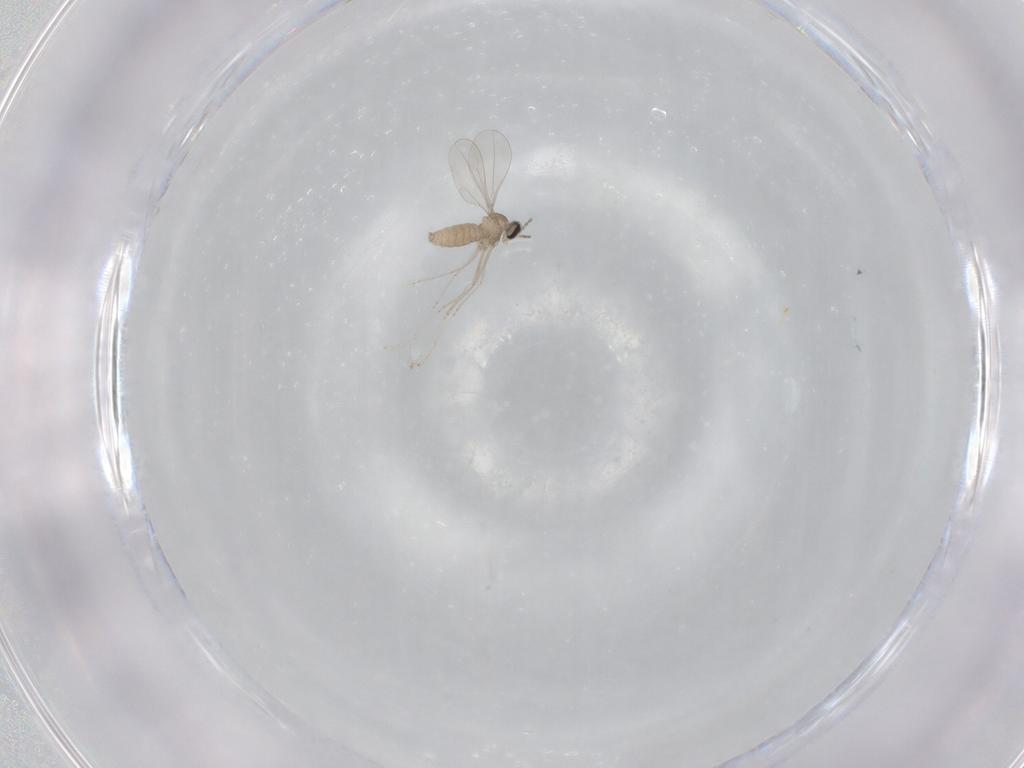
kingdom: Animalia
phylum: Arthropoda
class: Insecta
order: Diptera
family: Cecidomyiidae
